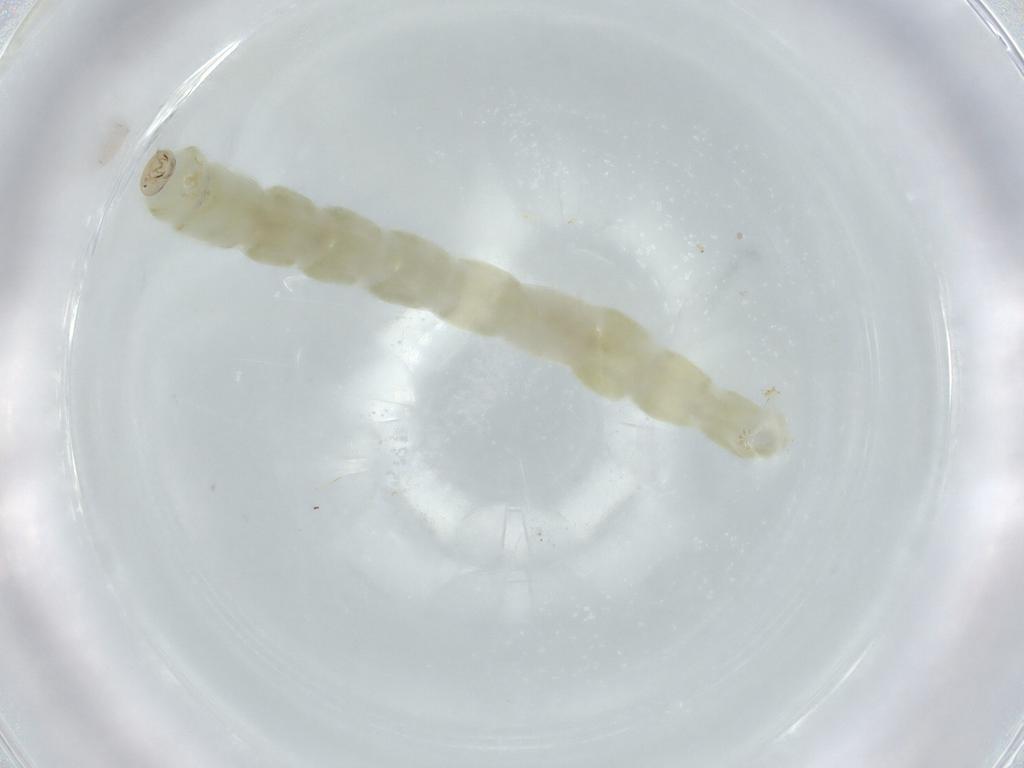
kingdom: Animalia
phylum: Arthropoda
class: Insecta
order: Diptera
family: Chironomidae
